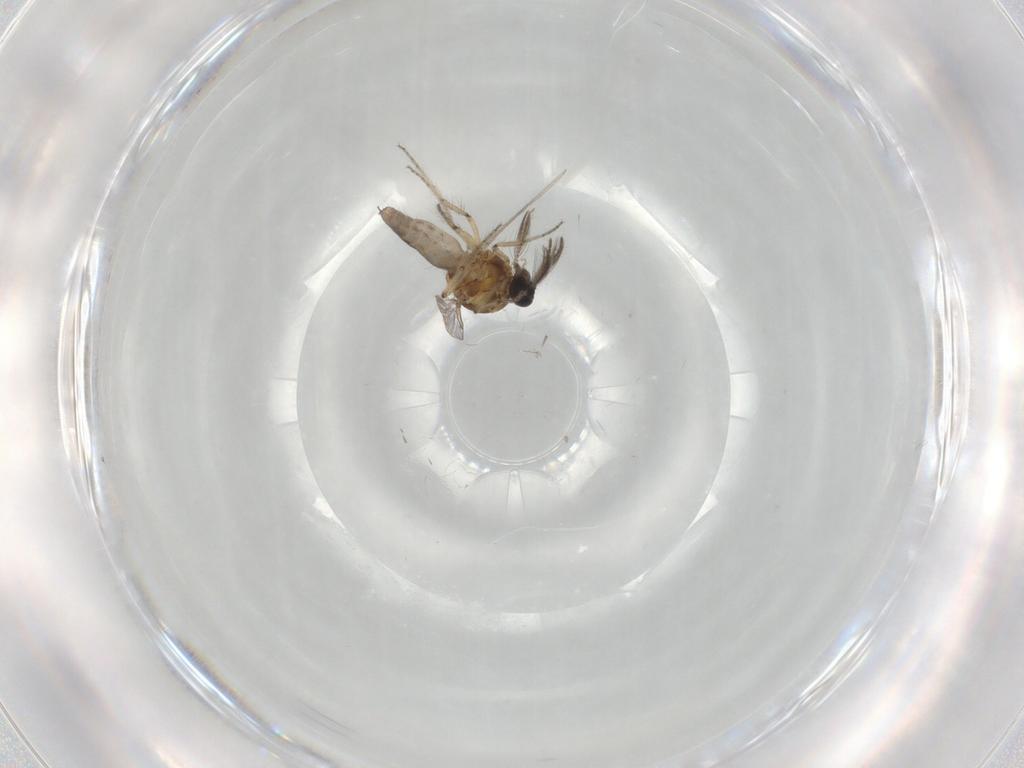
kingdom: Animalia
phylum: Arthropoda
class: Insecta
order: Diptera
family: Ceratopogonidae
